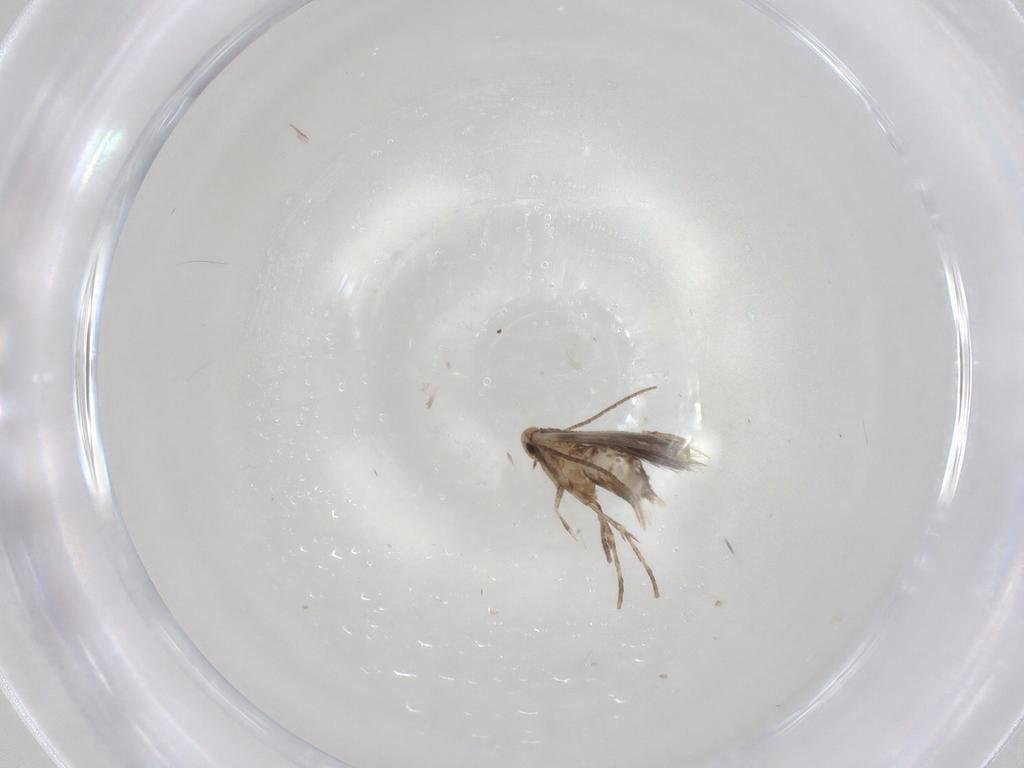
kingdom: Animalia
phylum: Arthropoda
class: Insecta
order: Lepidoptera
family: Gracillariidae
